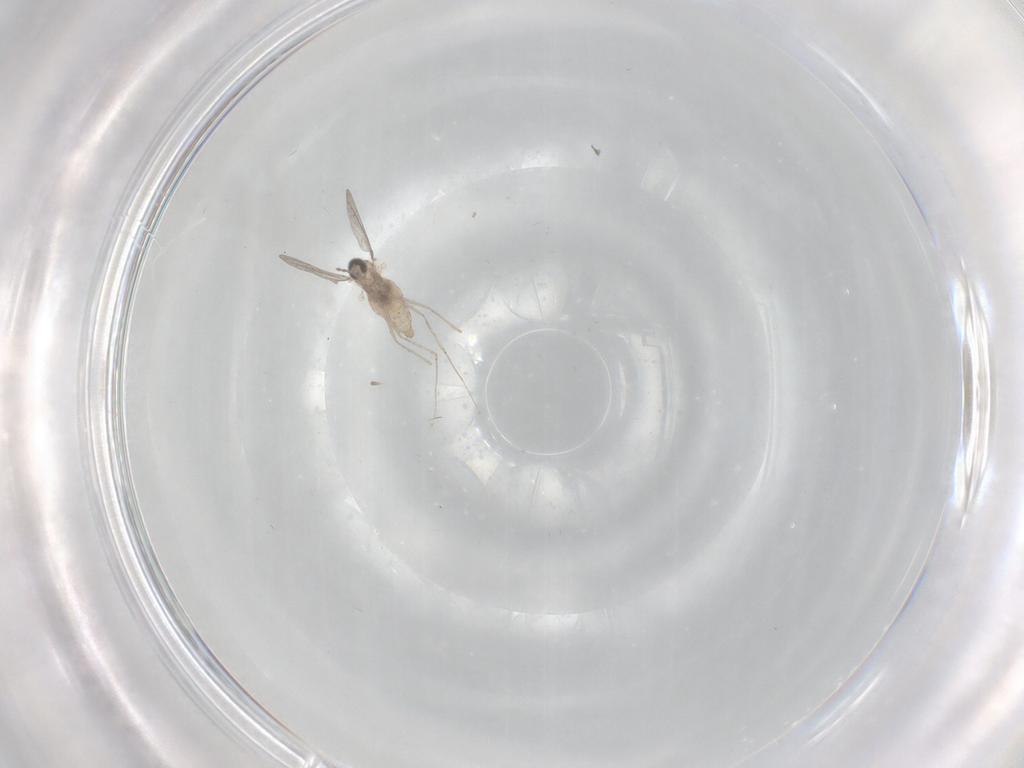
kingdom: Animalia
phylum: Arthropoda
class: Insecta
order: Diptera
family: Cecidomyiidae
